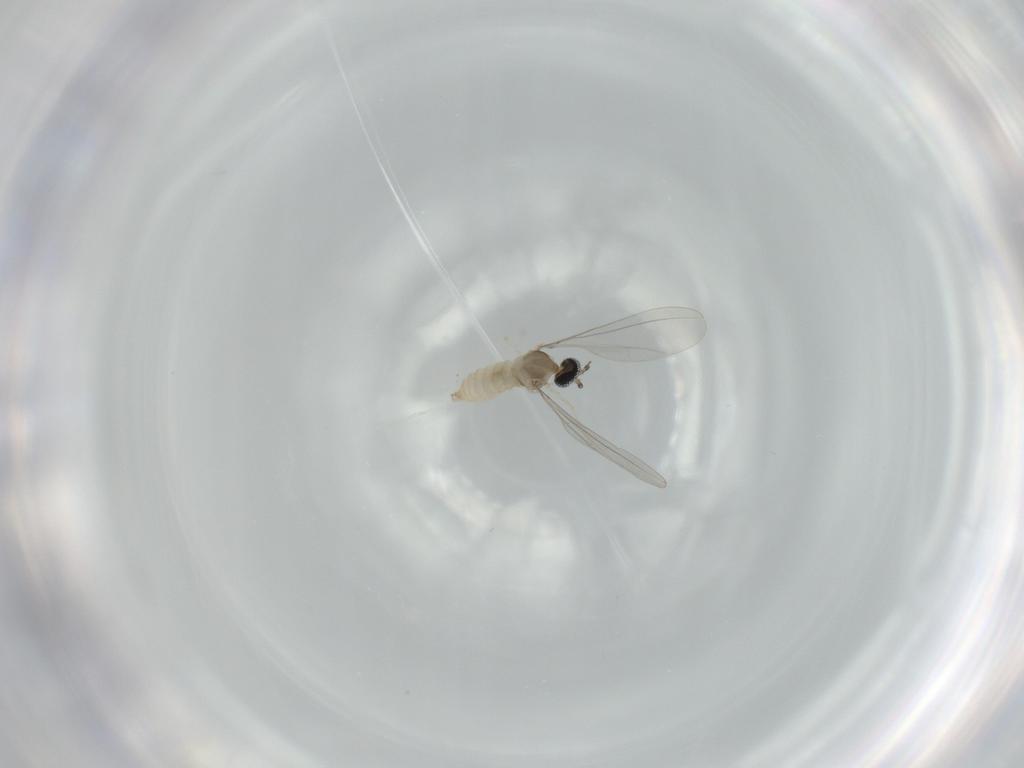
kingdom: Animalia
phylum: Arthropoda
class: Insecta
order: Diptera
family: Cecidomyiidae
